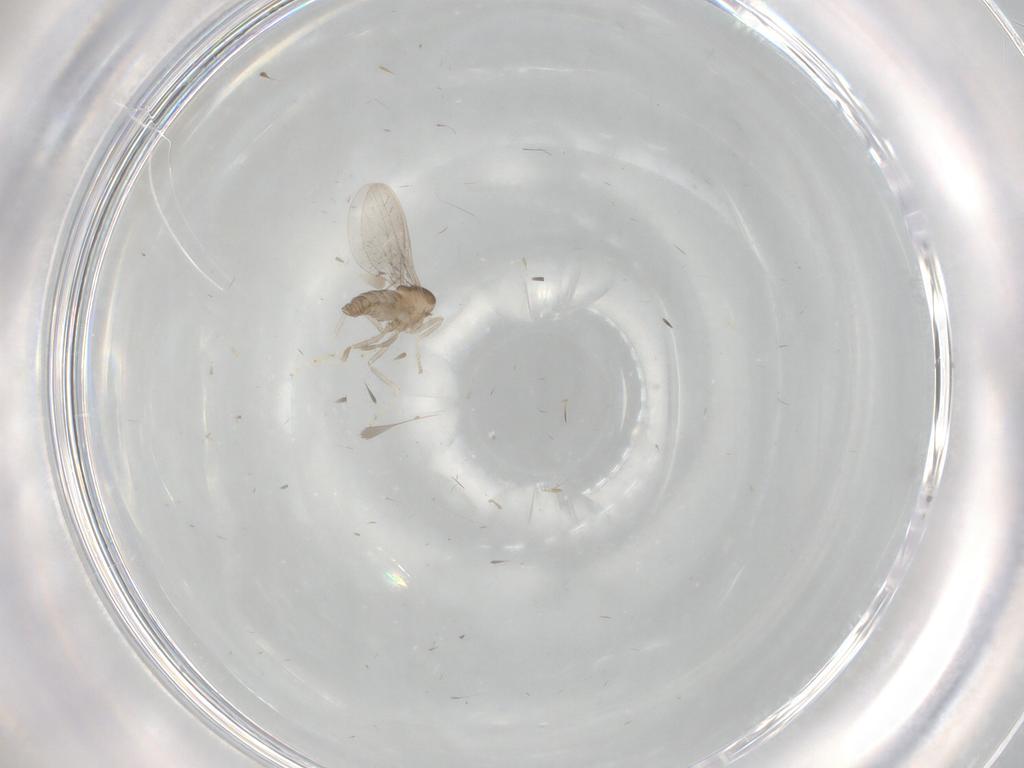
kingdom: Animalia
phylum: Arthropoda
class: Insecta
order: Diptera
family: Cecidomyiidae
